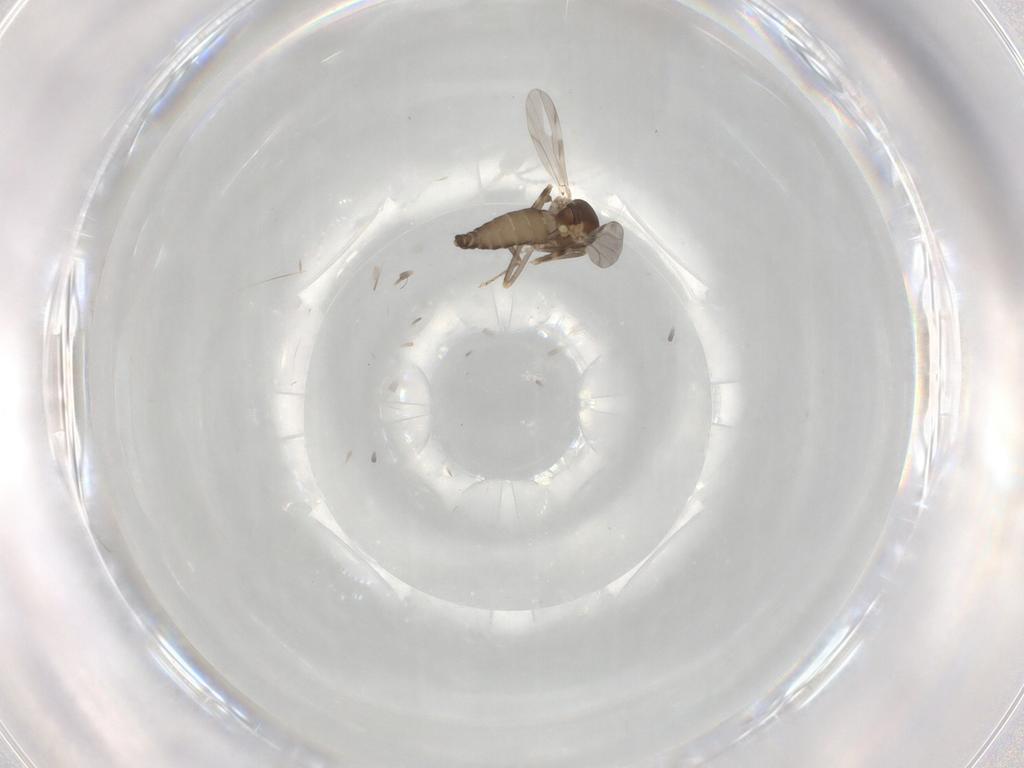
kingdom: Animalia
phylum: Arthropoda
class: Insecta
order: Diptera
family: Ceratopogonidae
